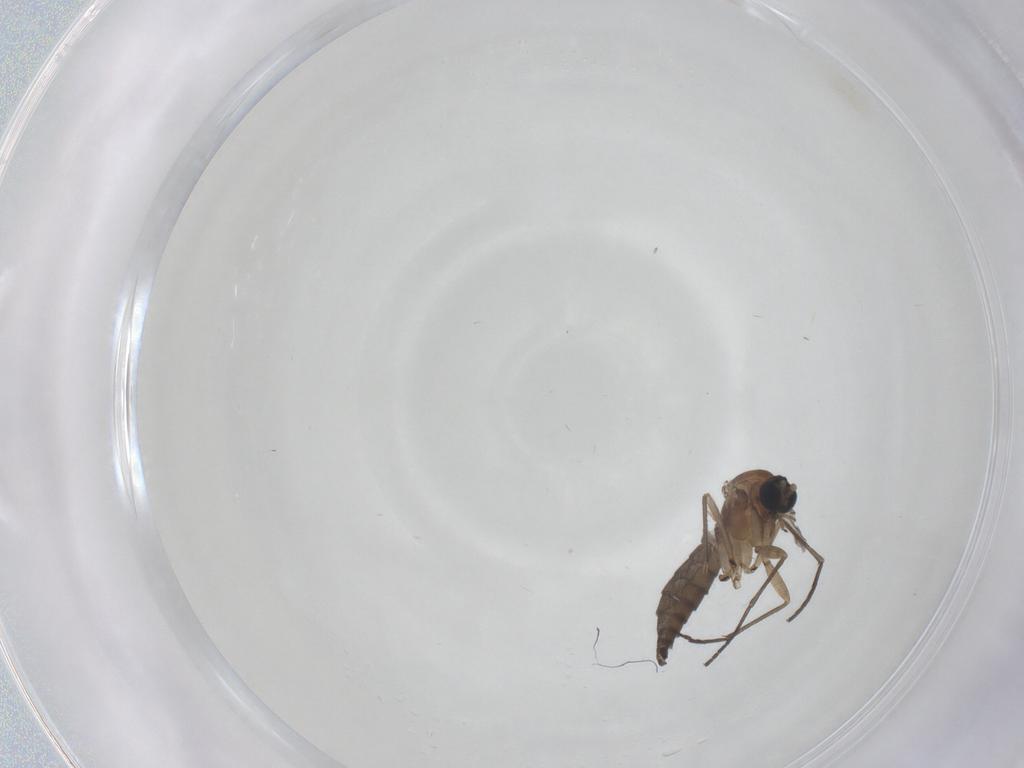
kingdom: Animalia
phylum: Arthropoda
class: Insecta
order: Diptera
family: Sciaridae
